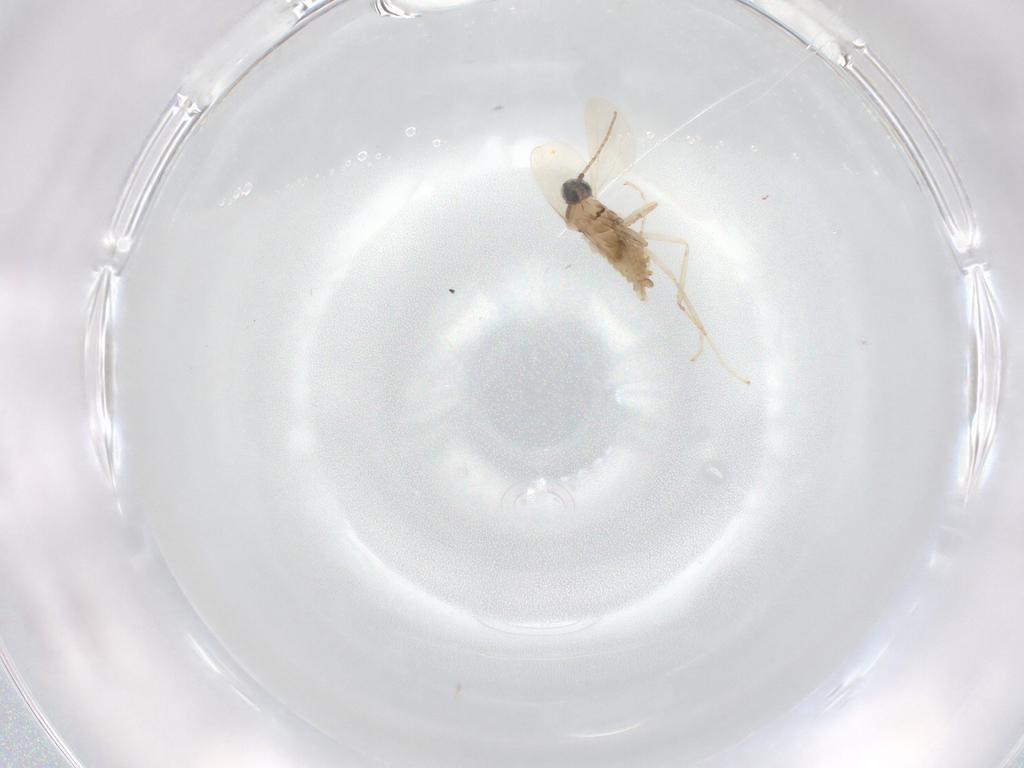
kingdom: Animalia
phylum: Arthropoda
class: Insecta
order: Diptera
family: Cecidomyiidae
